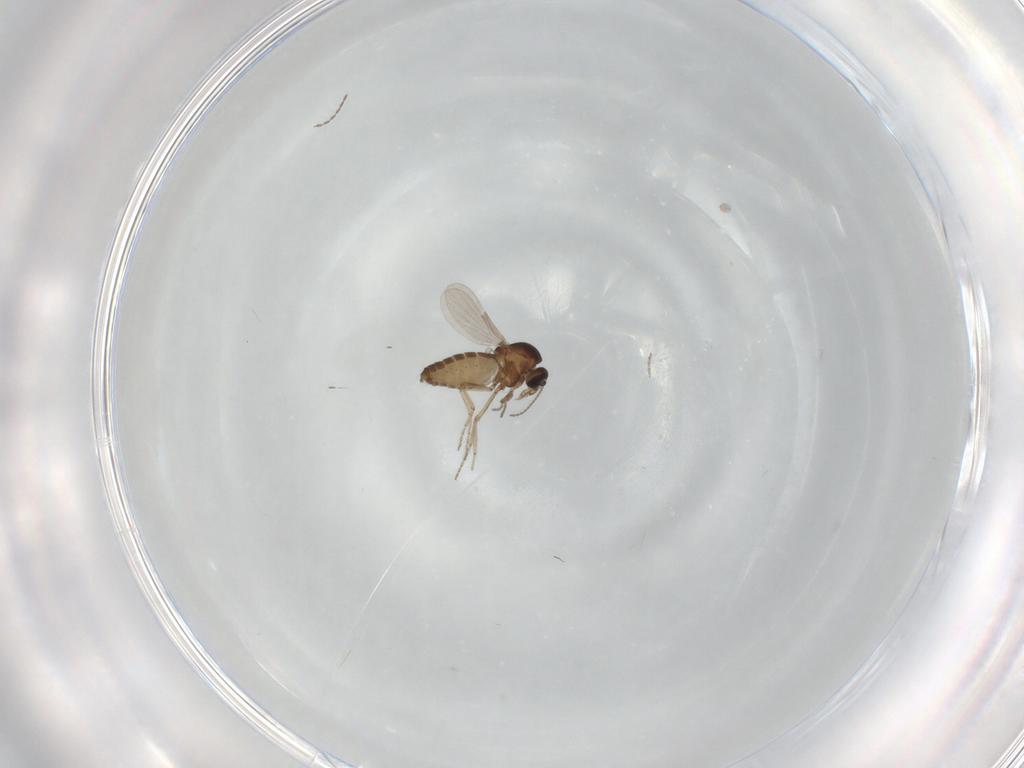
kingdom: Animalia
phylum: Arthropoda
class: Insecta
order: Diptera
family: Ceratopogonidae
